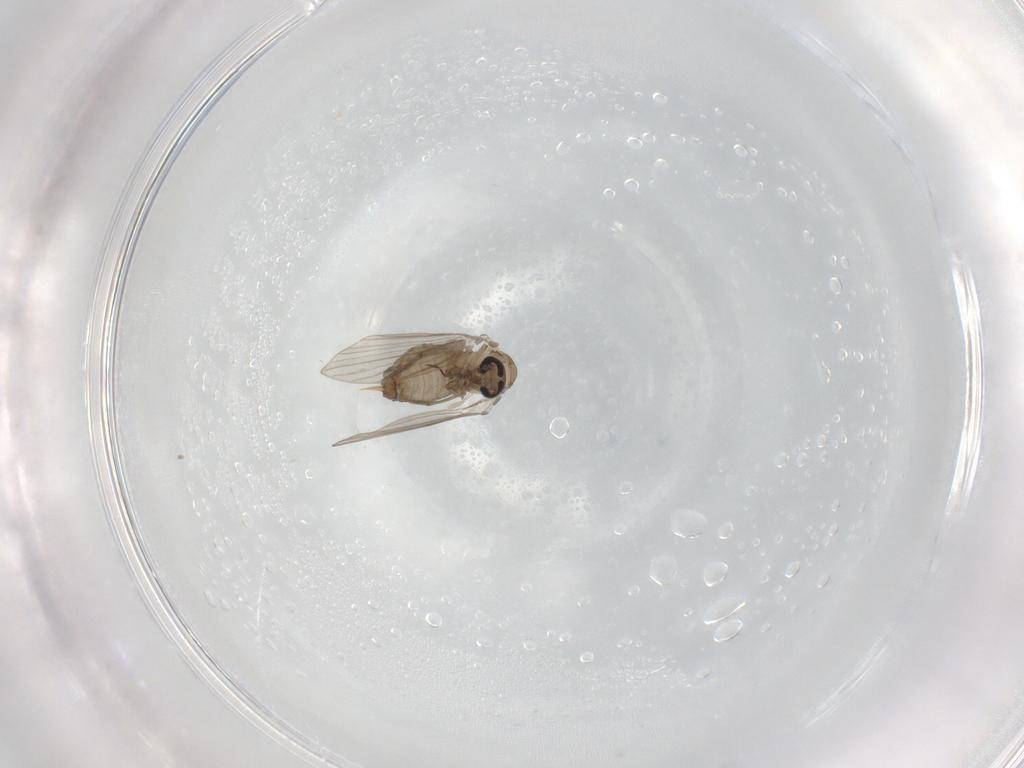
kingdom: Animalia
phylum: Arthropoda
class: Insecta
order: Diptera
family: Psychodidae
